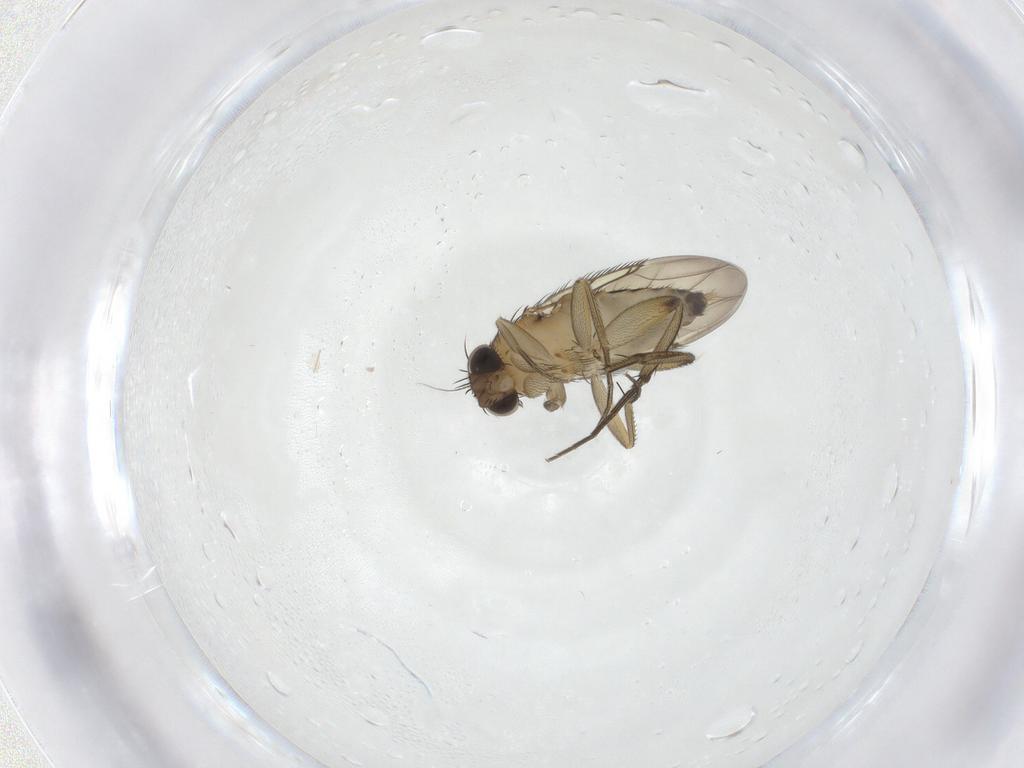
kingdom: Animalia
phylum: Arthropoda
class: Insecta
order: Diptera
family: Phoridae
